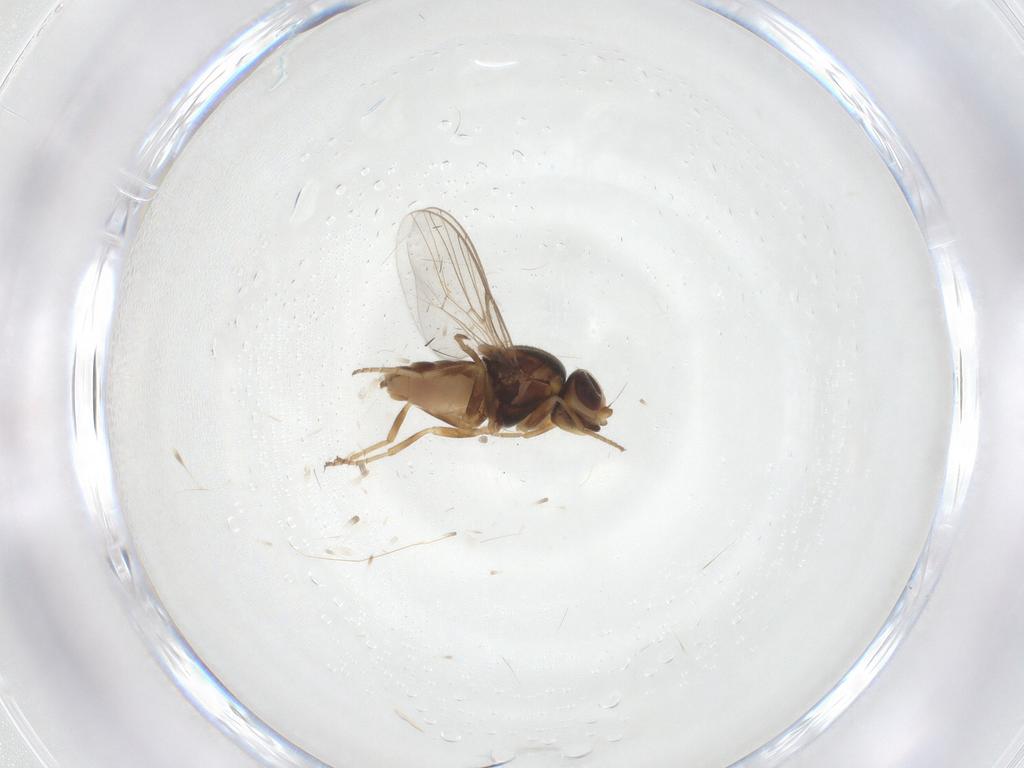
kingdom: Animalia
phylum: Arthropoda
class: Insecta
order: Diptera
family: Chloropidae
